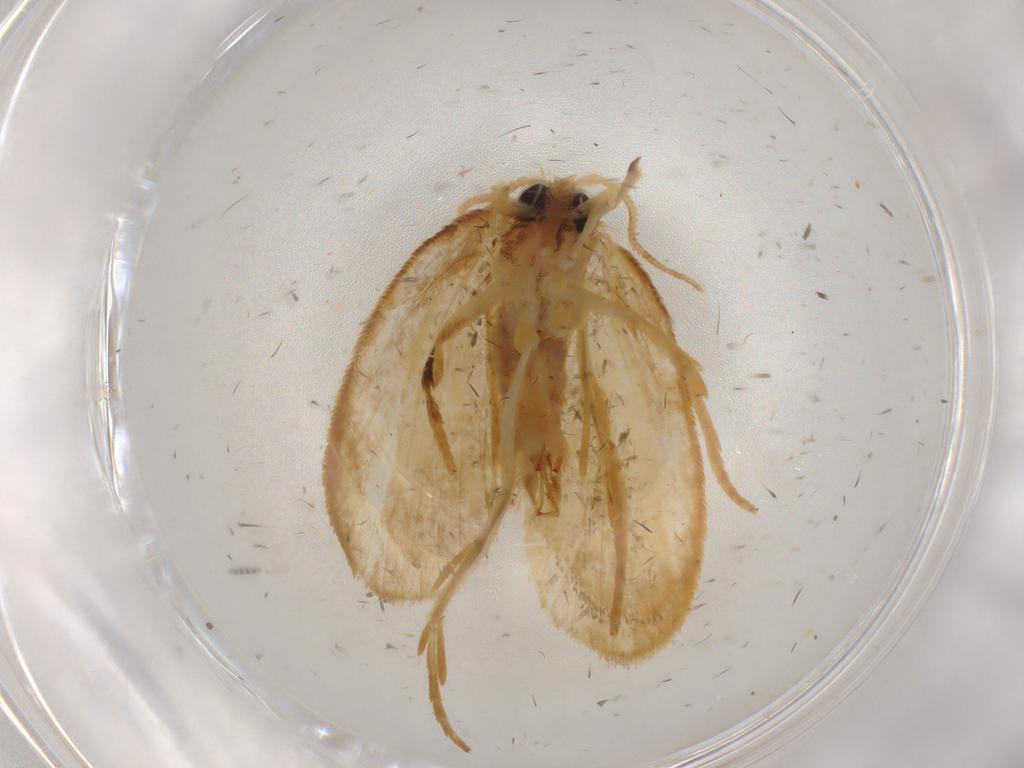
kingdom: Animalia
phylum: Arthropoda
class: Insecta
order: Lepidoptera
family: Psychidae
